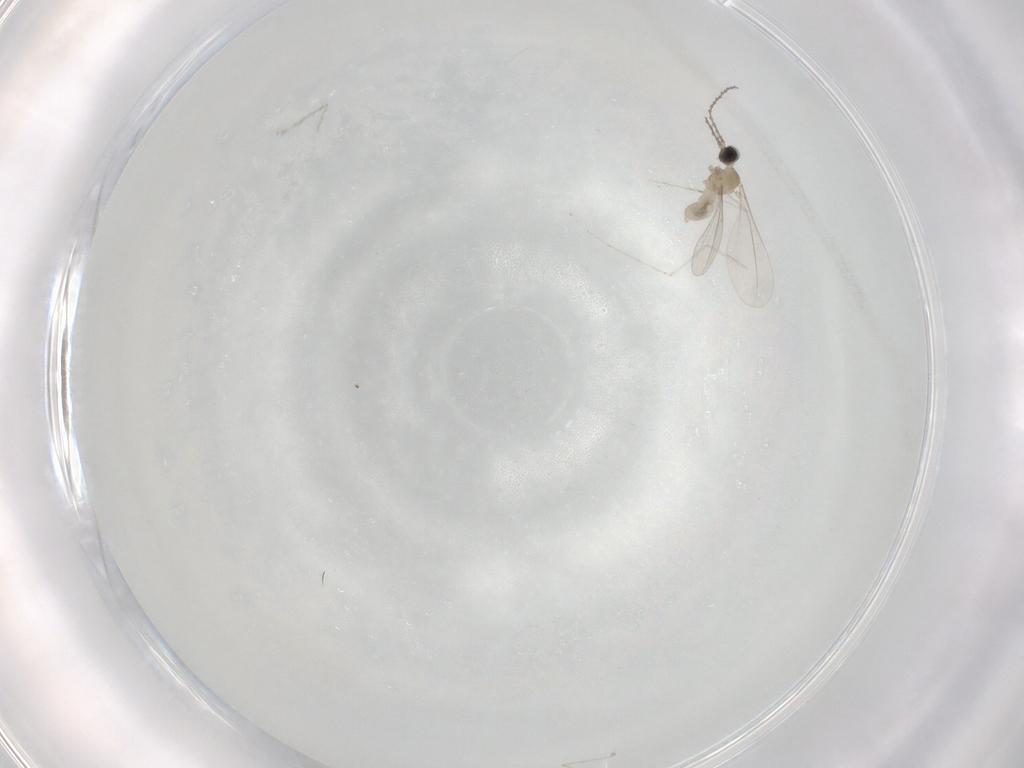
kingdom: Animalia
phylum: Arthropoda
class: Insecta
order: Diptera
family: Cecidomyiidae
